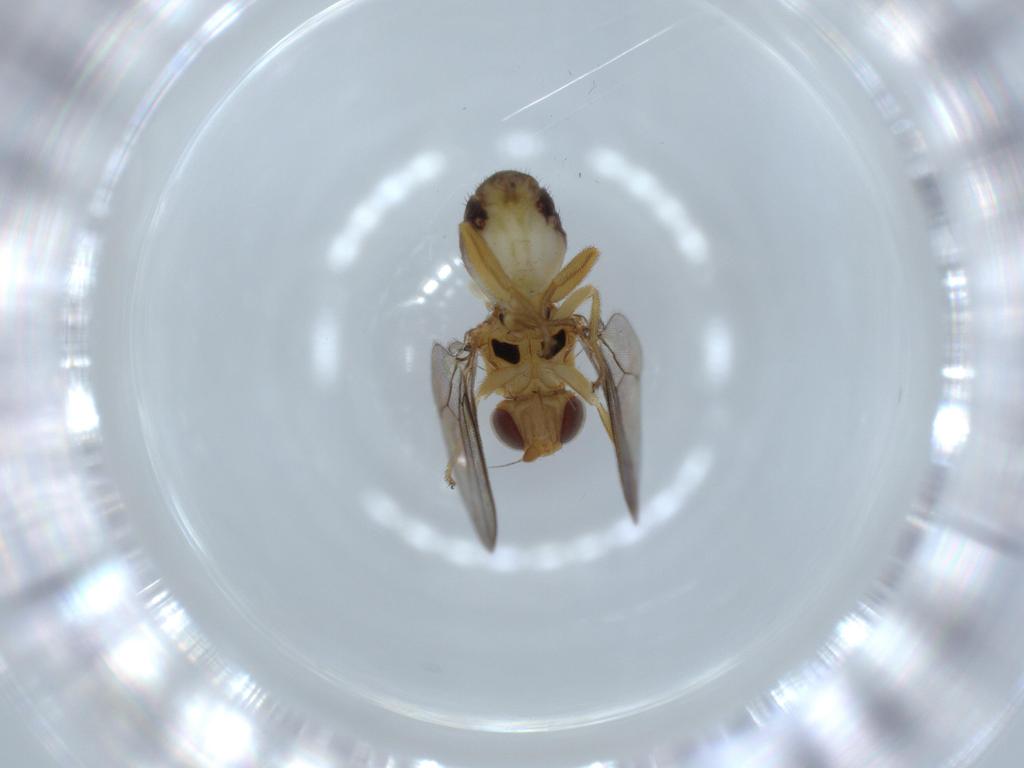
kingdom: Animalia
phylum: Arthropoda
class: Insecta
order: Diptera
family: Chloropidae
